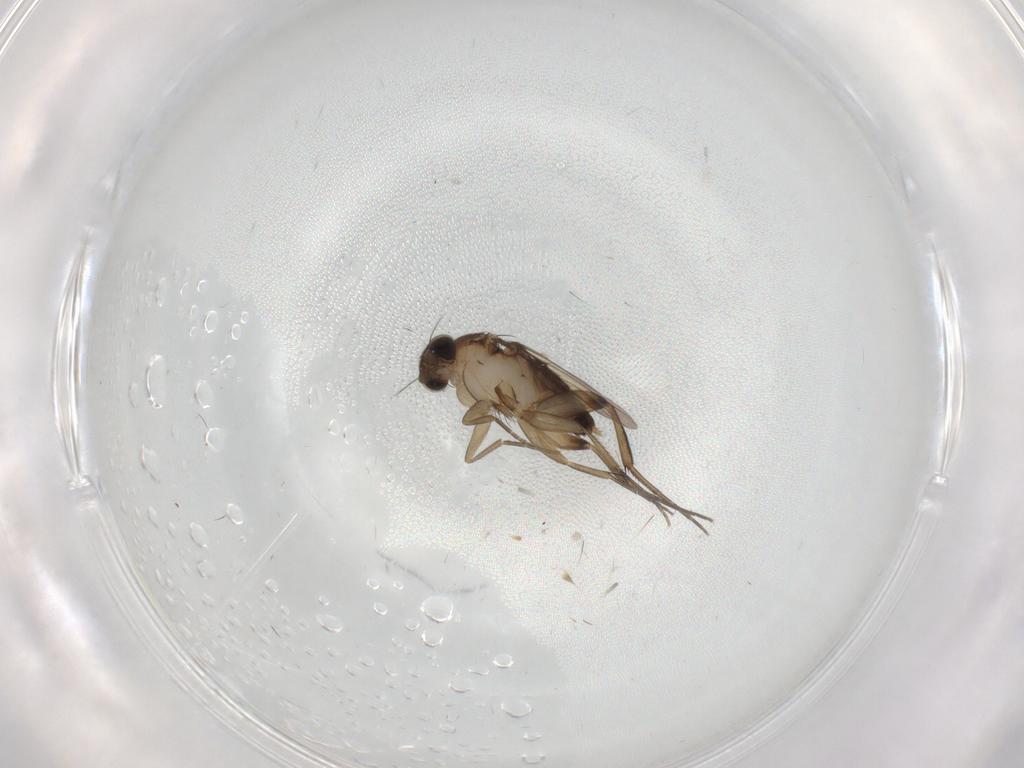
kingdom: Animalia
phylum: Arthropoda
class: Insecta
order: Diptera
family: Phoridae
